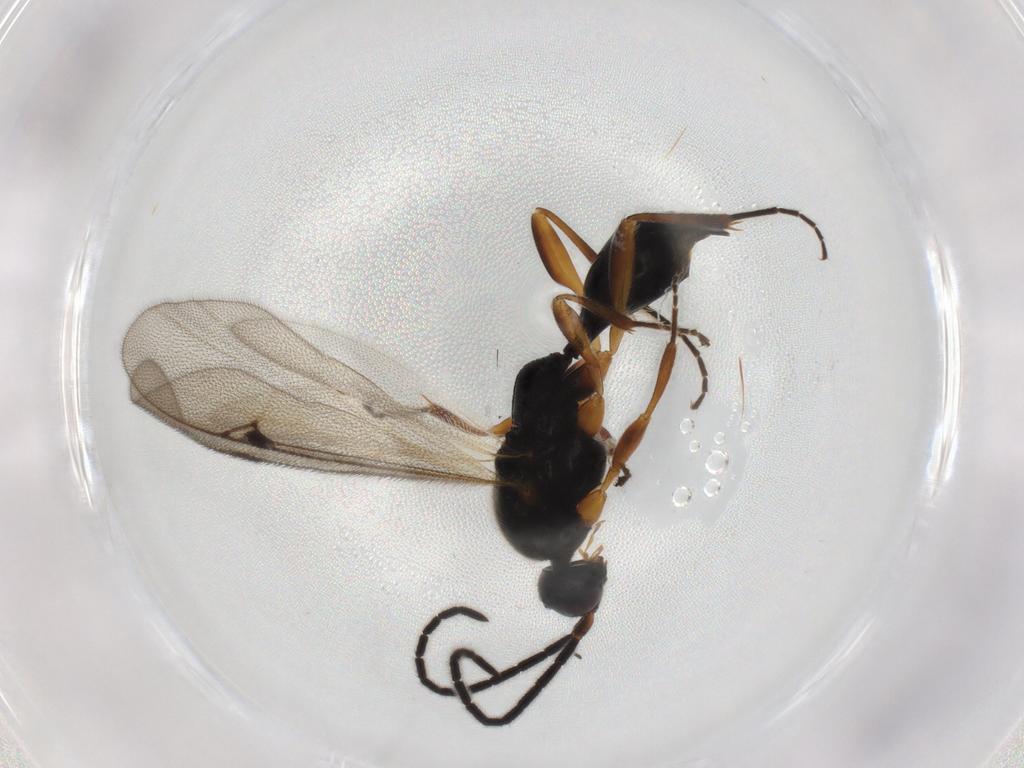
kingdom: Animalia
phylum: Arthropoda
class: Insecta
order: Hymenoptera
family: Proctotrupidae
